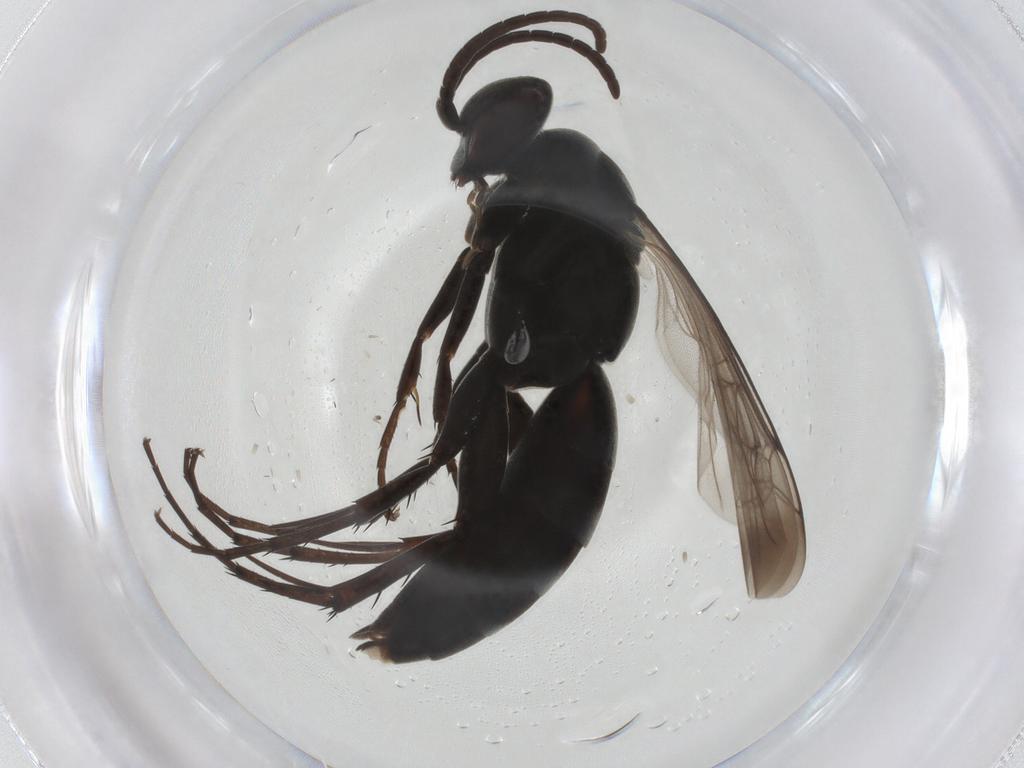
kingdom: Animalia
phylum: Arthropoda
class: Insecta
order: Hymenoptera
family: Pompilidae
